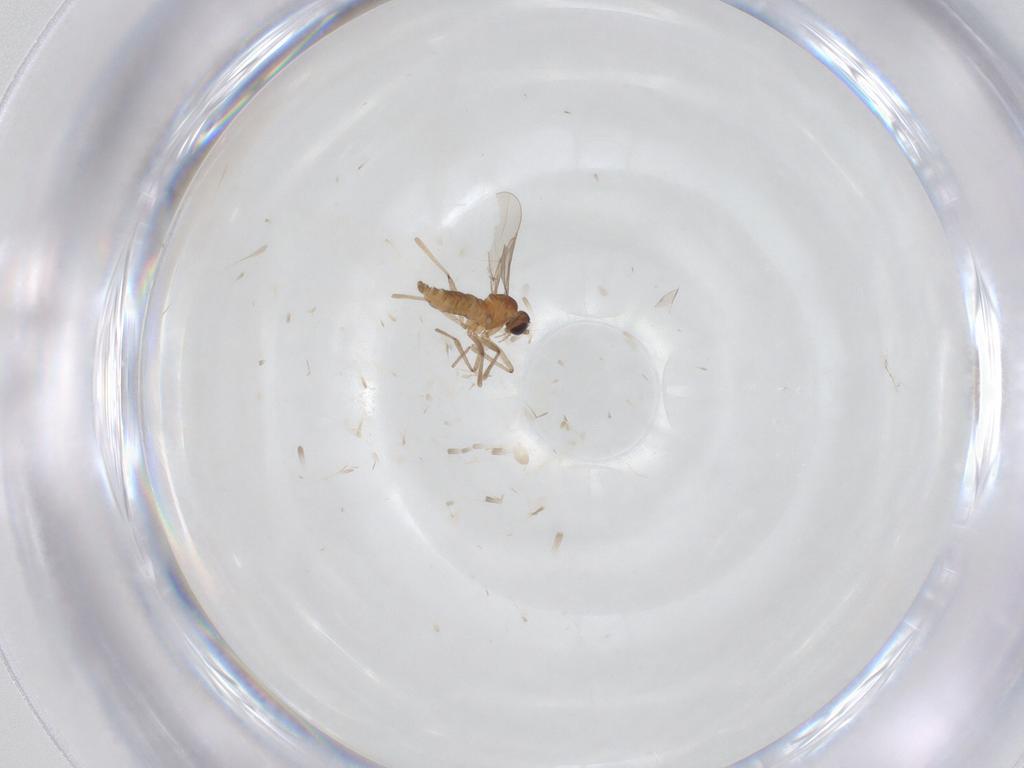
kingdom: Animalia
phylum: Arthropoda
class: Insecta
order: Diptera
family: Cecidomyiidae
